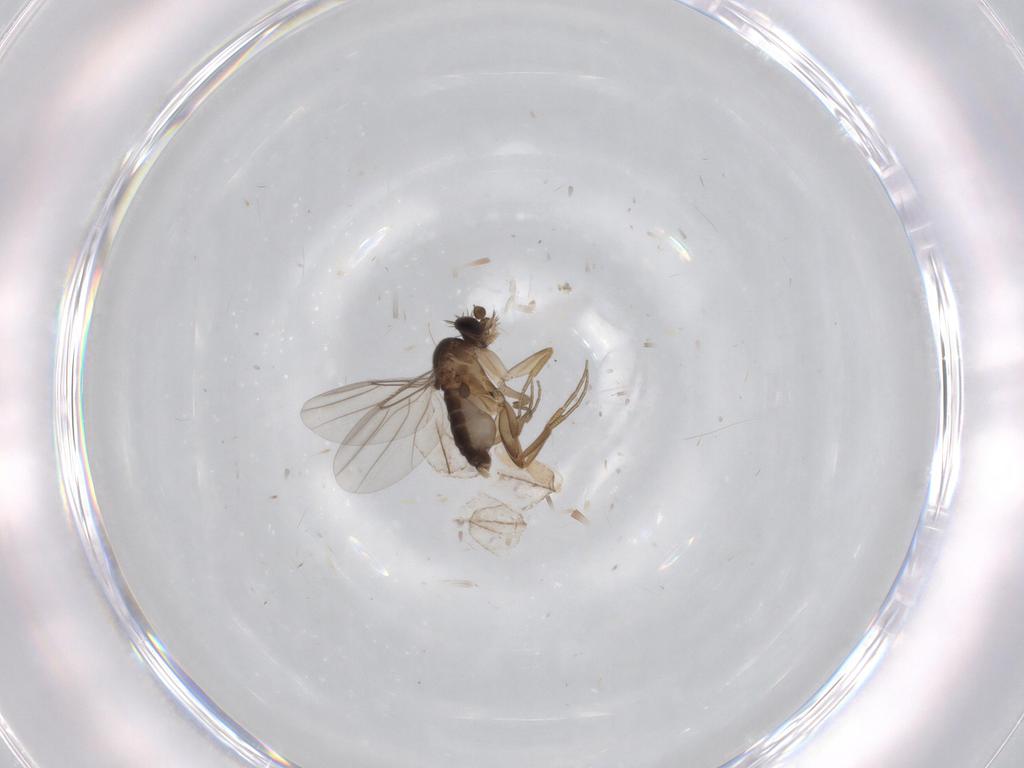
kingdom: Animalia
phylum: Arthropoda
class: Insecta
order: Diptera
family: Phoridae
